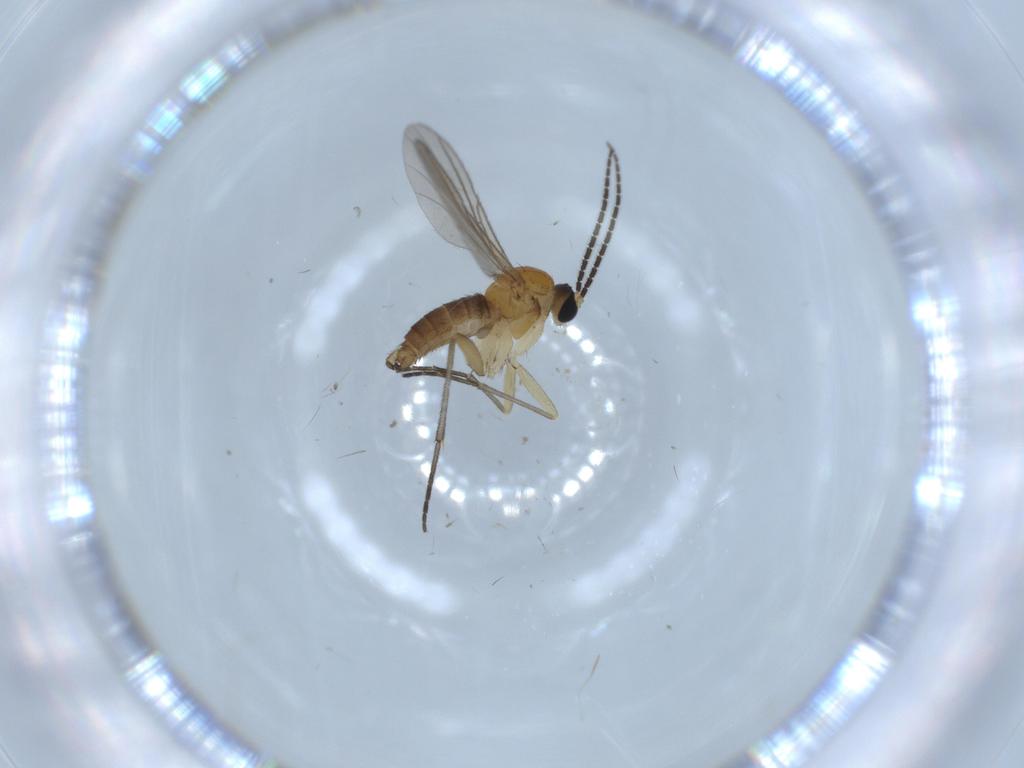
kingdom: Animalia
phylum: Arthropoda
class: Insecta
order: Diptera
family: Sciaridae
